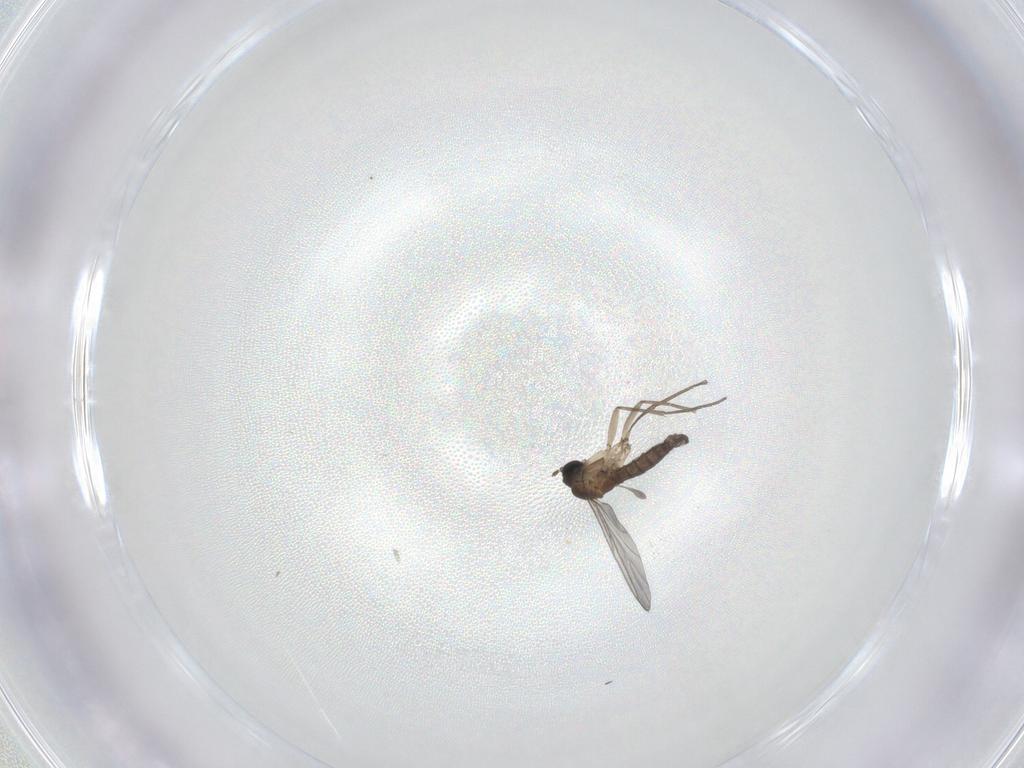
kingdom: Animalia
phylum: Arthropoda
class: Insecta
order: Diptera
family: Sciaridae
